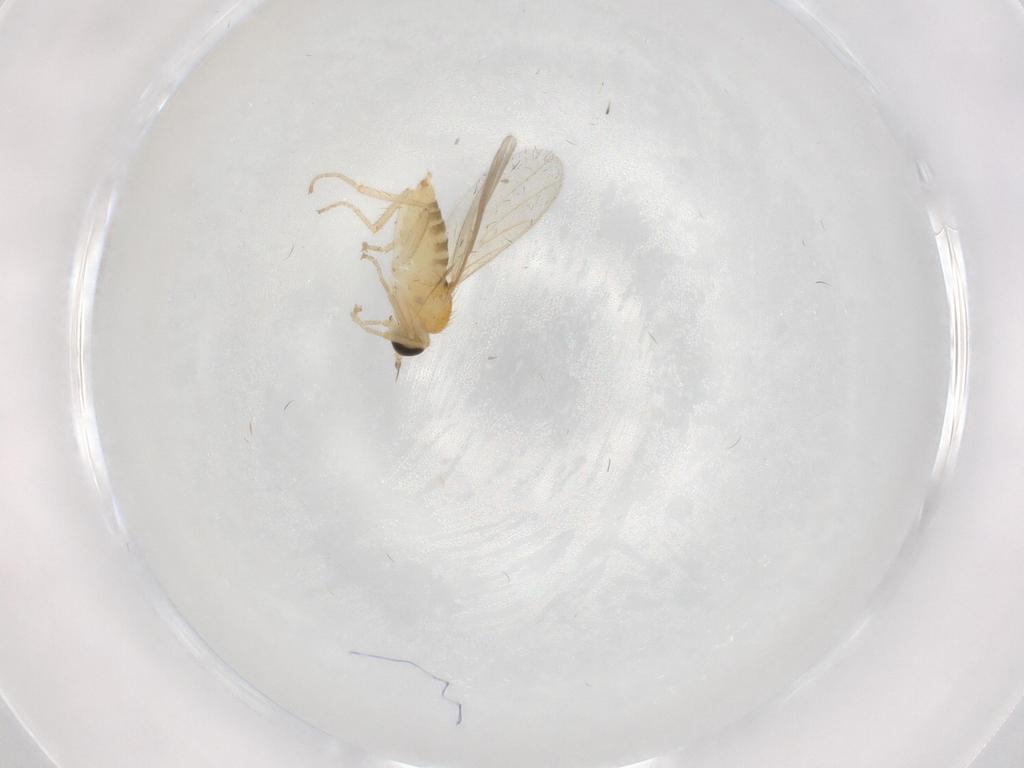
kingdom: Animalia
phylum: Arthropoda
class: Insecta
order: Diptera
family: Hybotidae
